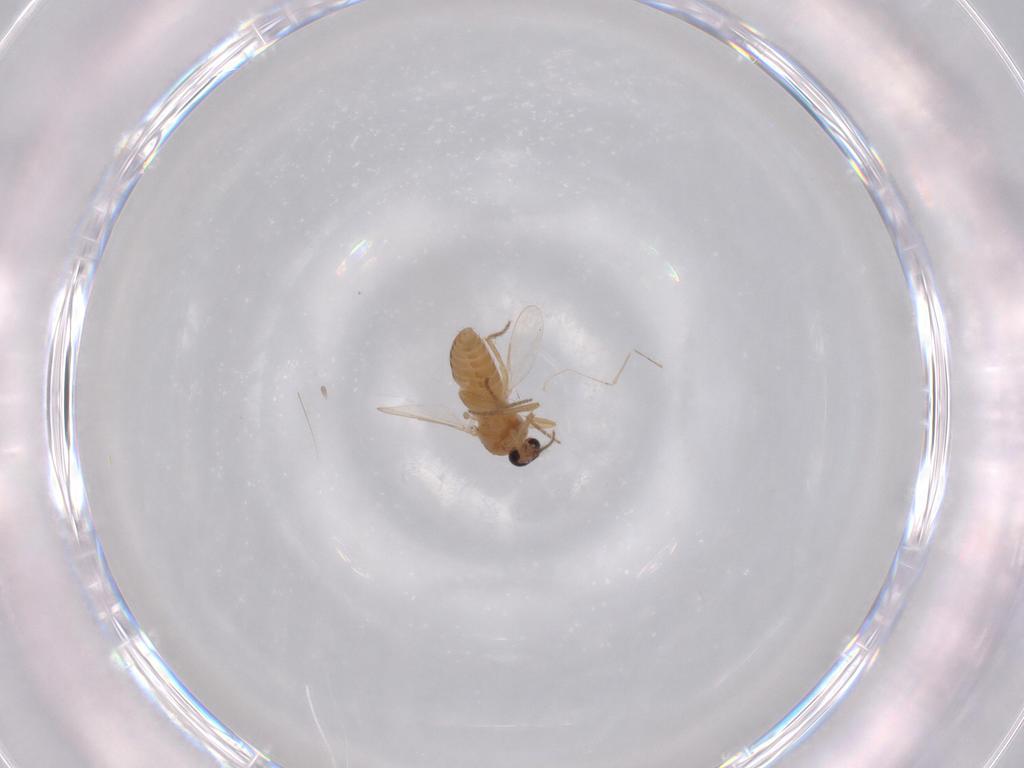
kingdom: Animalia
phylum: Arthropoda
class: Insecta
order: Diptera
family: Ceratopogonidae
